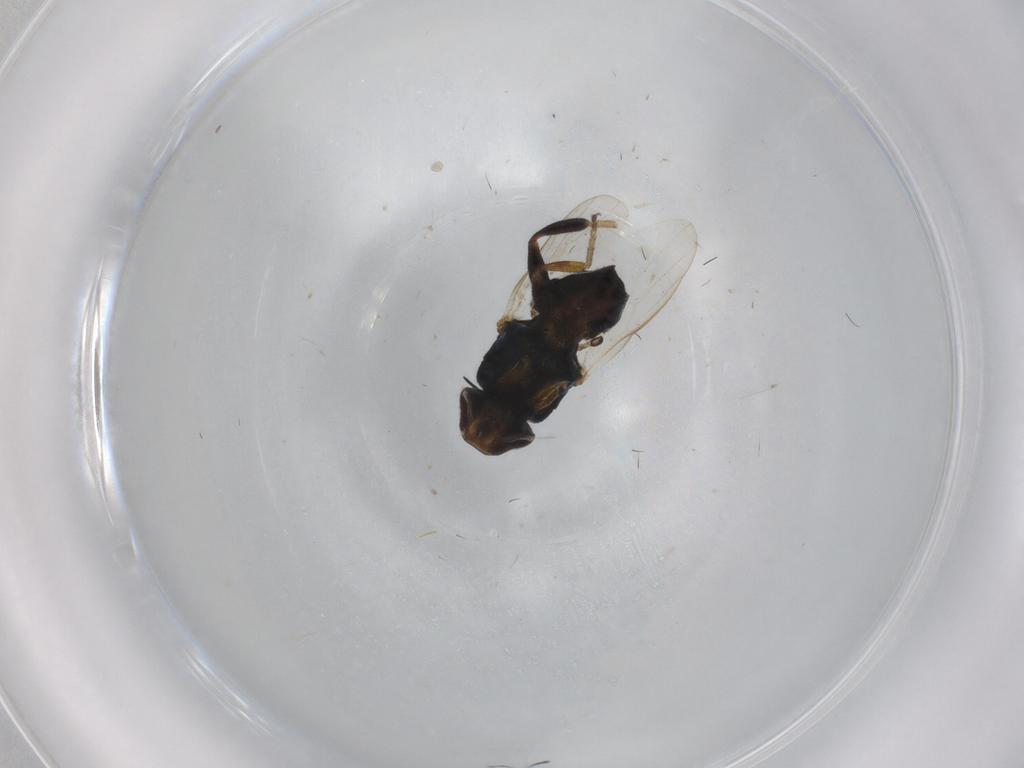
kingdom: Animalia
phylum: Arthropoda
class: Insecta
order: Diptera
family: Chloropidae
